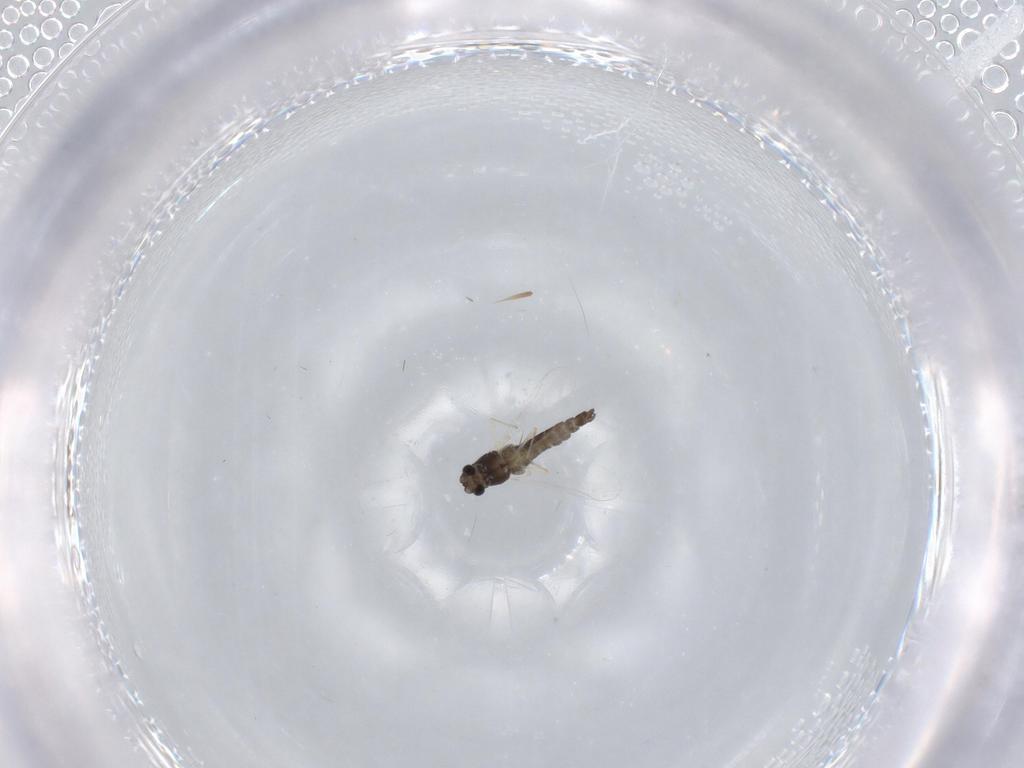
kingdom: Animalia
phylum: Arthropoda
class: Insecta
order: Diptera
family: Chironomidae
